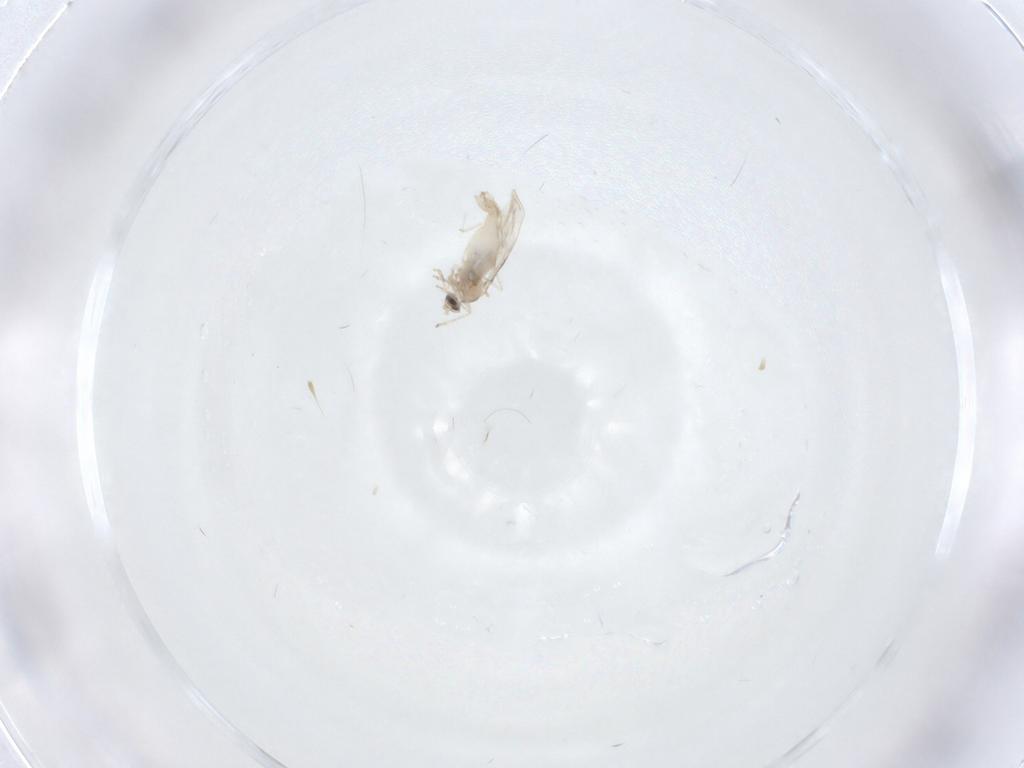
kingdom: Animalia
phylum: Arthropoda
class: Insecta
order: Diptera
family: Cecidomyiidae
